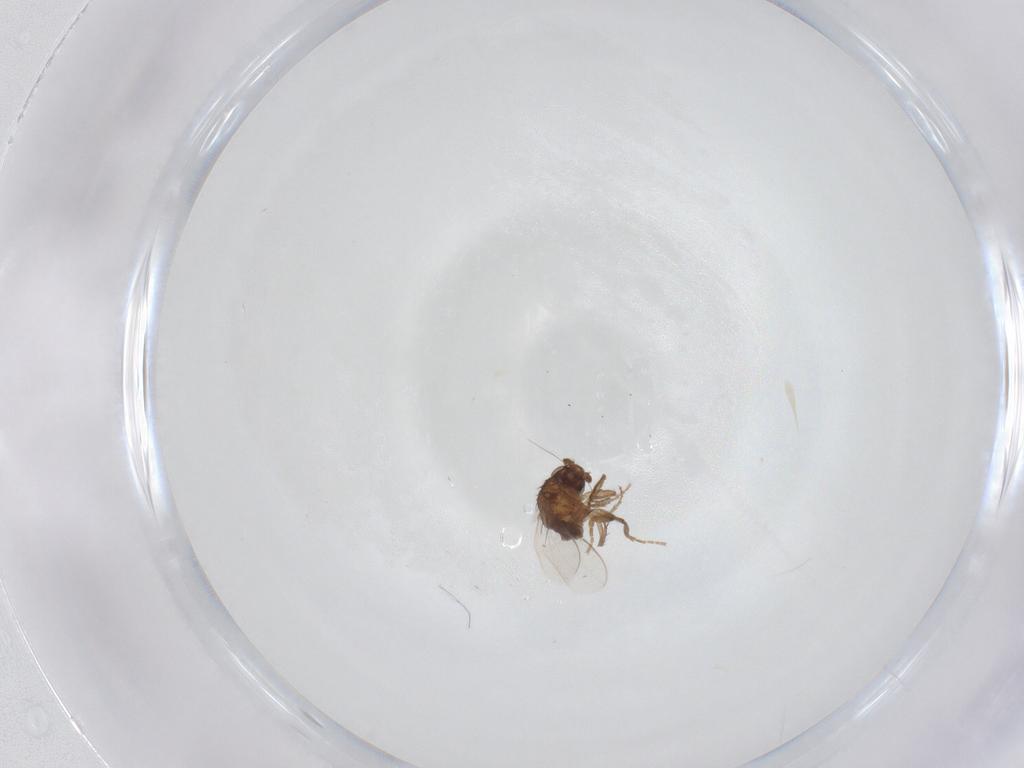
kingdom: Animalia
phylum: Arthropoda
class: Insecta
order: Diptera
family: Sphaeroceridae
